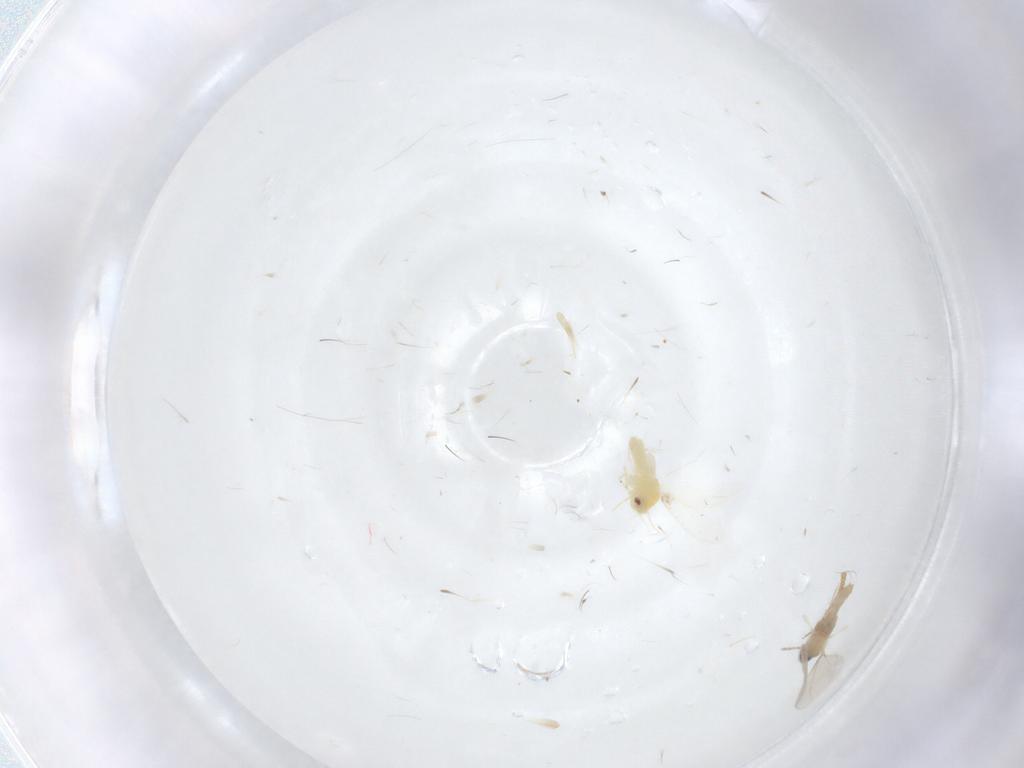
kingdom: Animalia
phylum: Arthropoda
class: Insecta
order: Diptera
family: Ceratopogonidae
